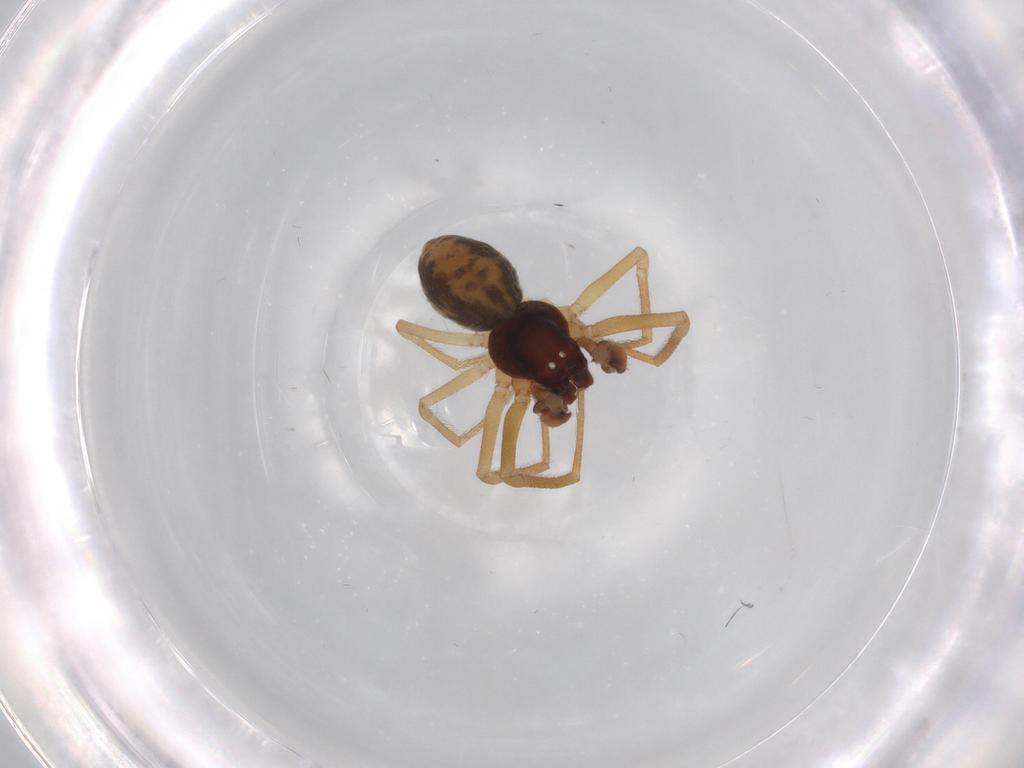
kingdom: Animalia
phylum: Arthropoda
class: Arachnida
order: Araneae
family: Dictynidae
